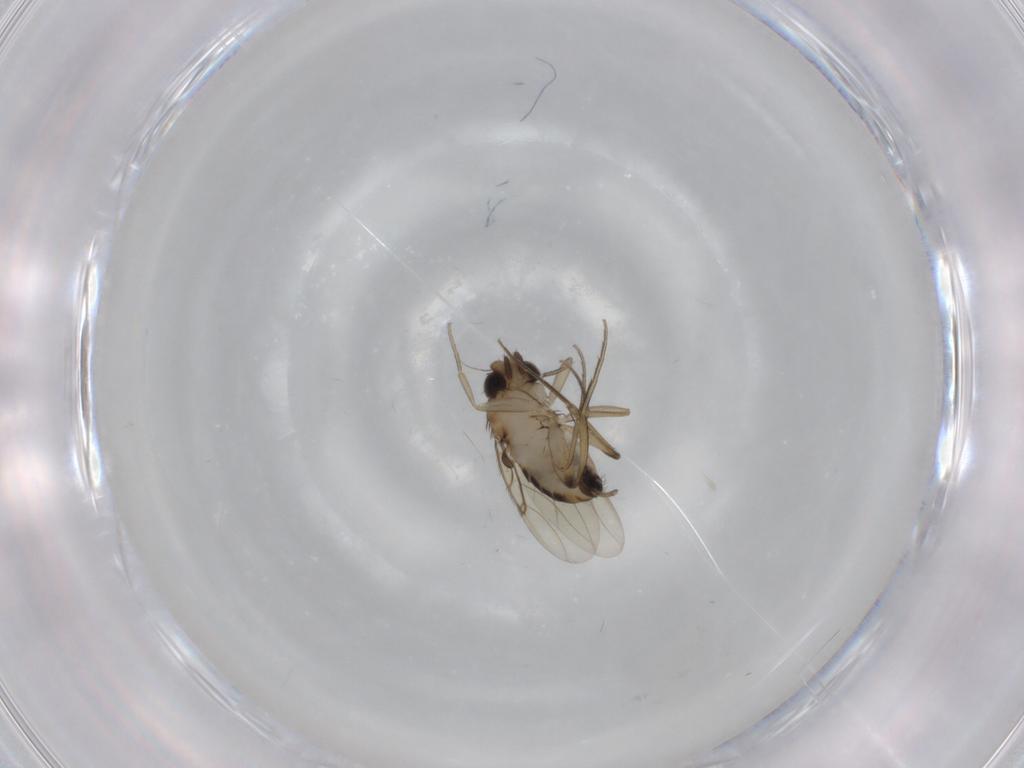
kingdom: Animalia
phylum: Arthropoda
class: Insecta
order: Diptera
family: Phoridae
